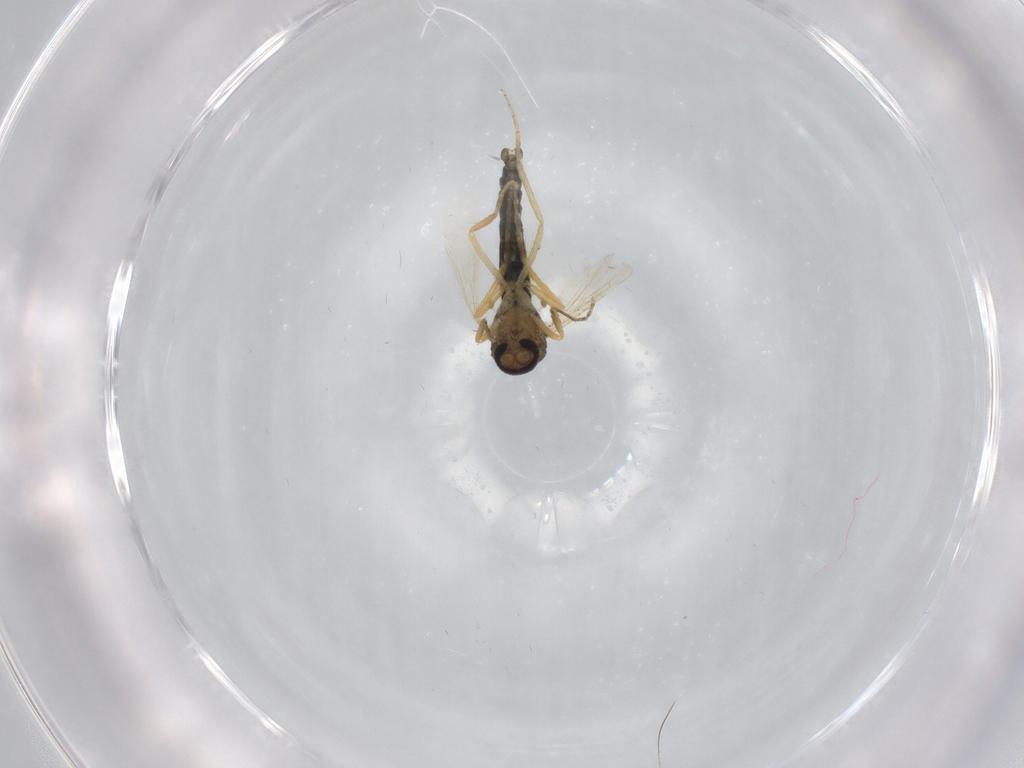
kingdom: Animalia
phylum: Arthropoda
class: Insecta
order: Diptera
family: Ceratopogonidae
